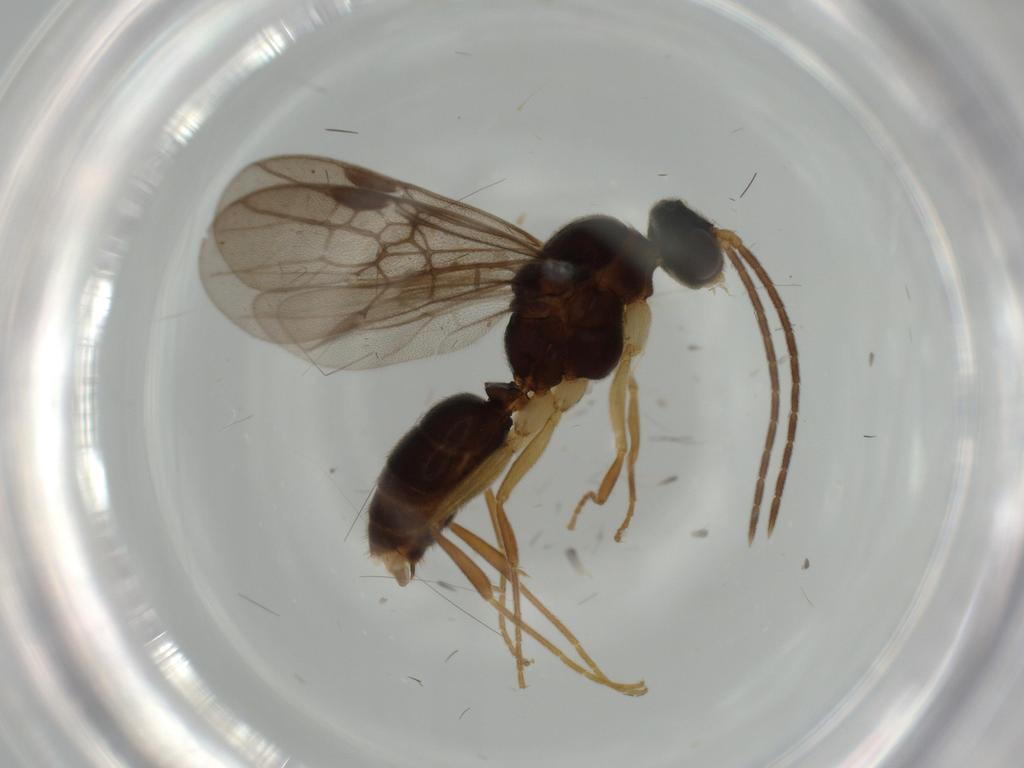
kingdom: Animalia
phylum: Arthropoda
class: Insecta
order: Hymenoptera
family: Formicidae
